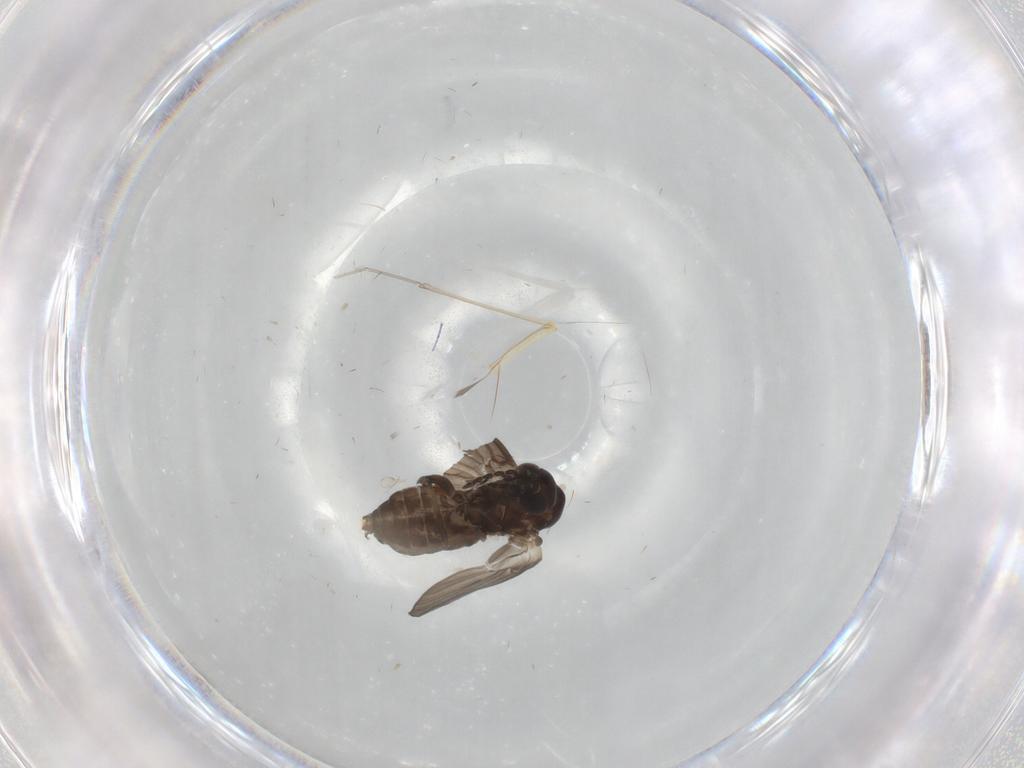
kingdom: Animalia
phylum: Arthropoda
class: Insecta
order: Diptera
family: Psychodidae
